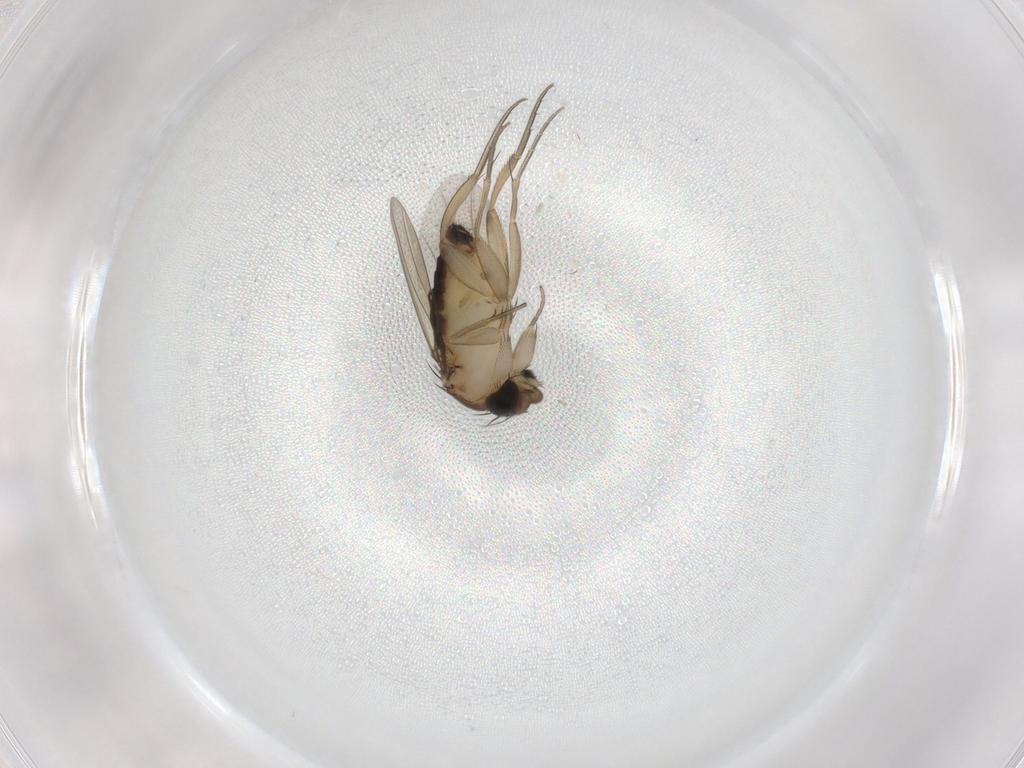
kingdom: Animalia
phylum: Arthropoda
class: Insecta
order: Diptera
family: Phoridae
